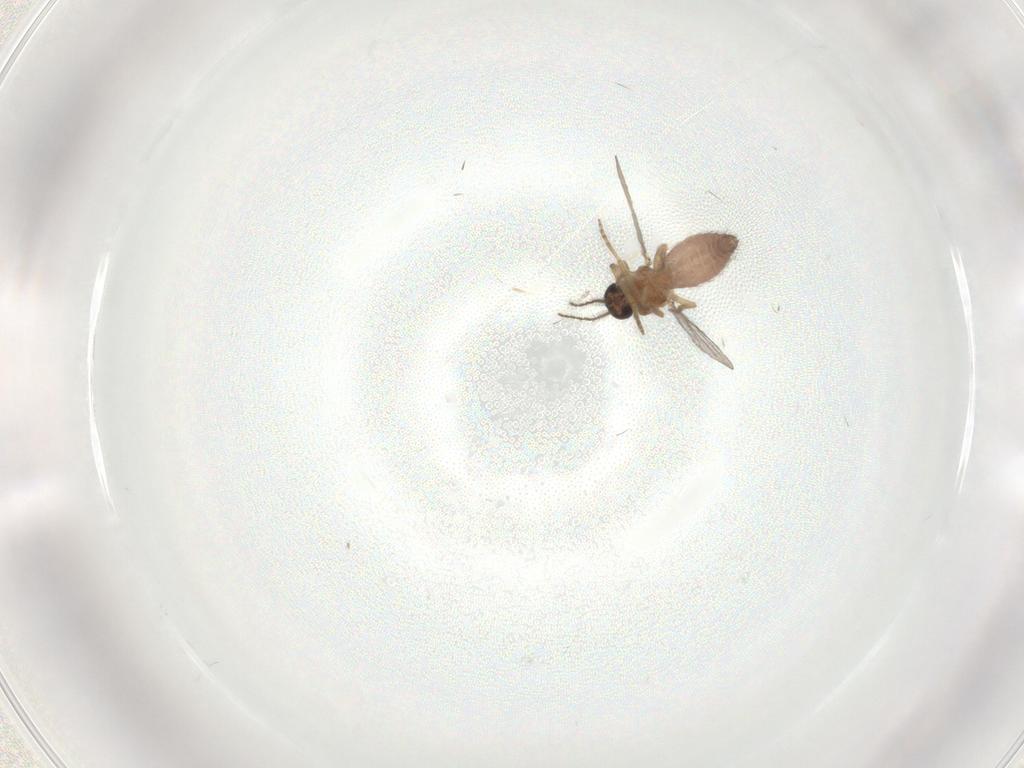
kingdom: Animalia
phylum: Arthropoda
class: Insecta
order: Diptera
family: Ceratopogonidae
